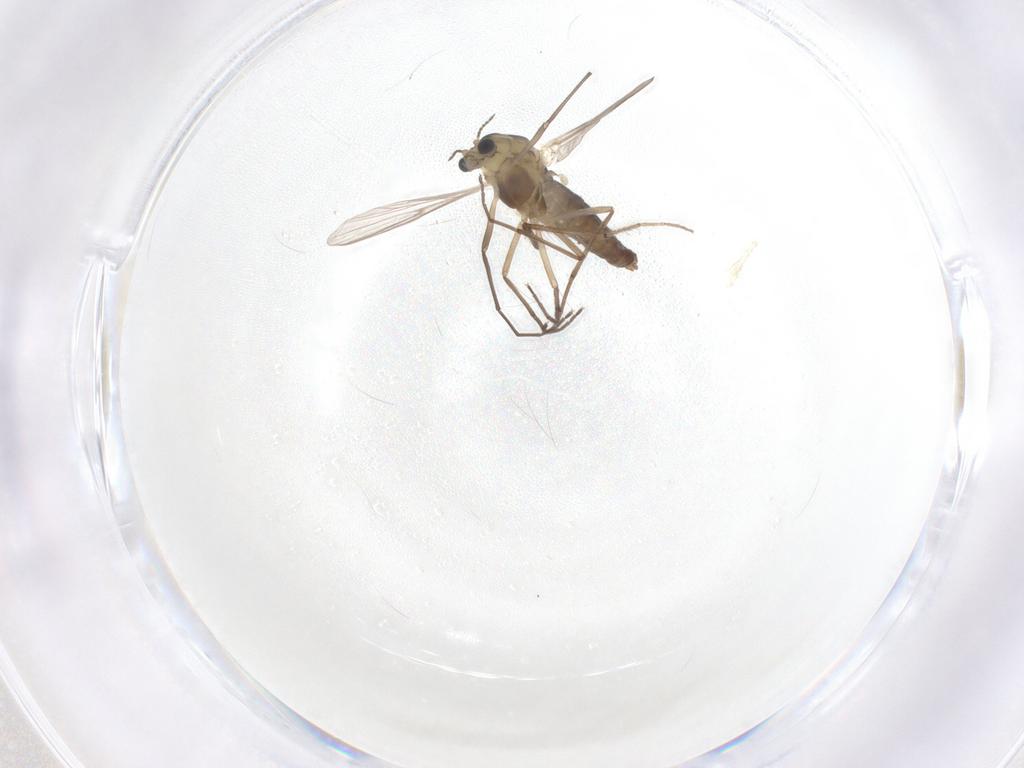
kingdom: Animalia
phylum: Arthropoda
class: Insecta
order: Diptera
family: Chironomidae
